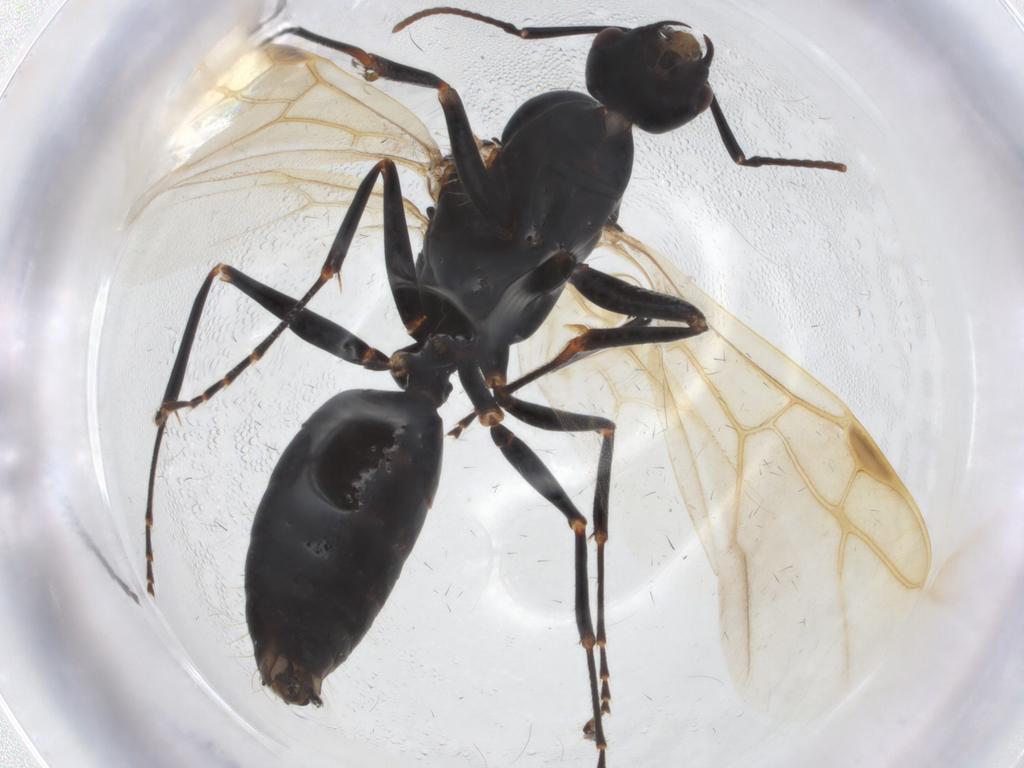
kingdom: Animalia
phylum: Arthropoda
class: Insecta
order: Hymenoptera
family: Formicidae
